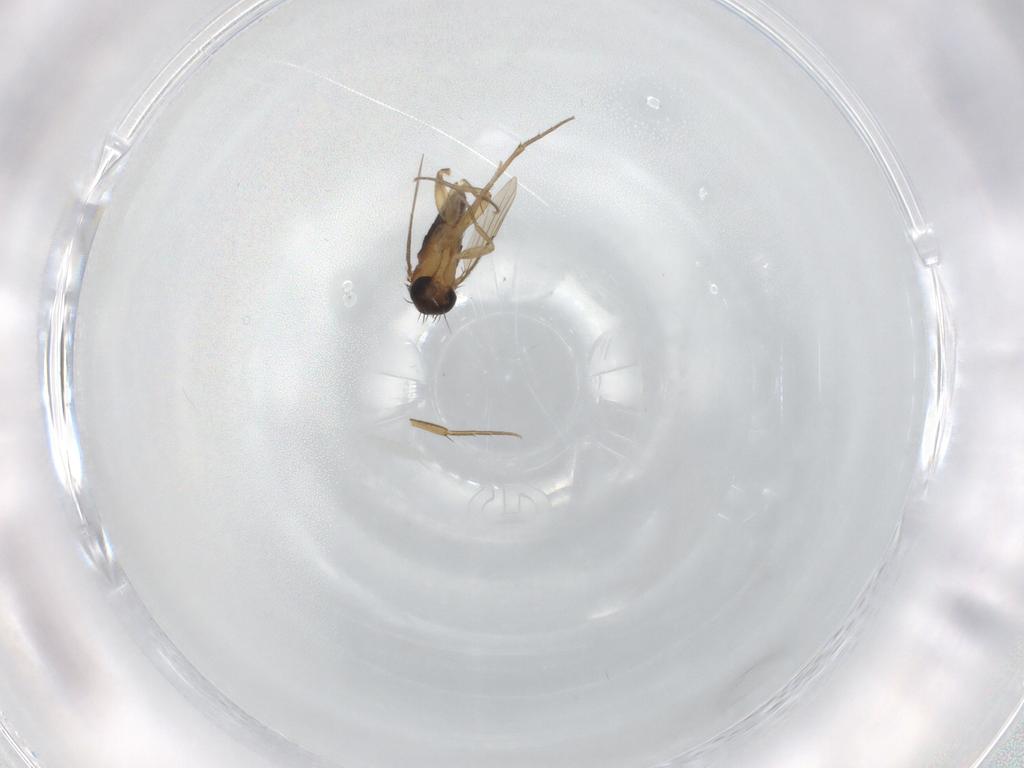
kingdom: Animalia
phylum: Arthropoda
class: Insecta
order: Diptera
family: Phoridae
